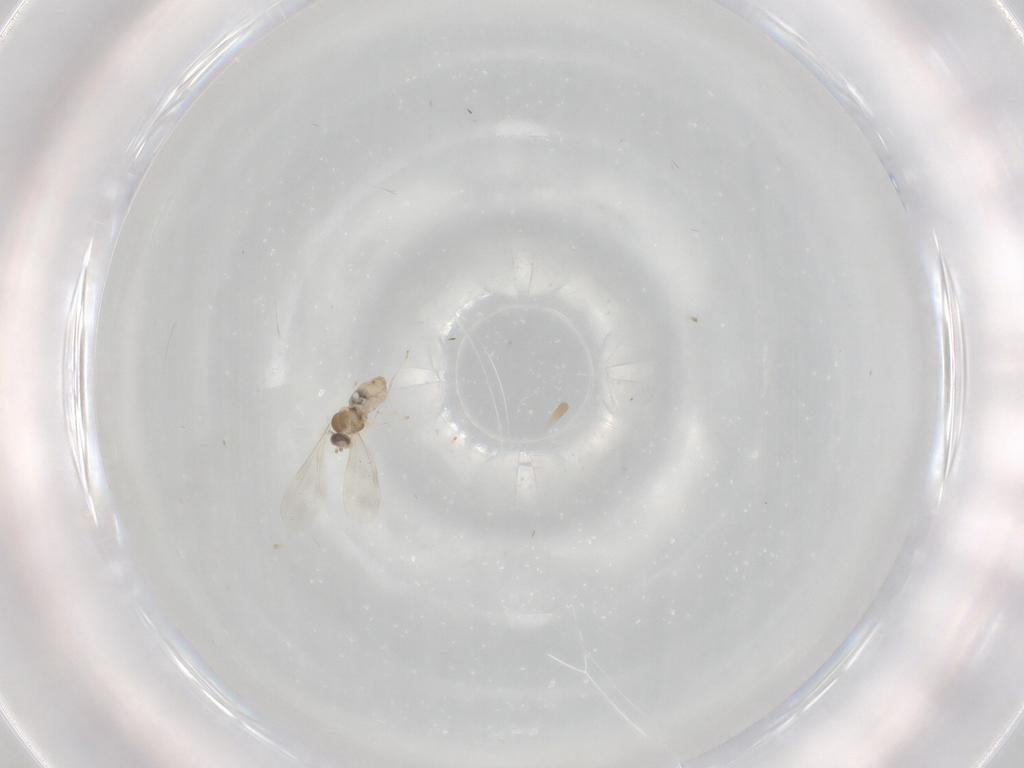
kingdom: Animalia
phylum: Arthropoda
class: Insecta
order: Diptera
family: Cecidomyiidae
